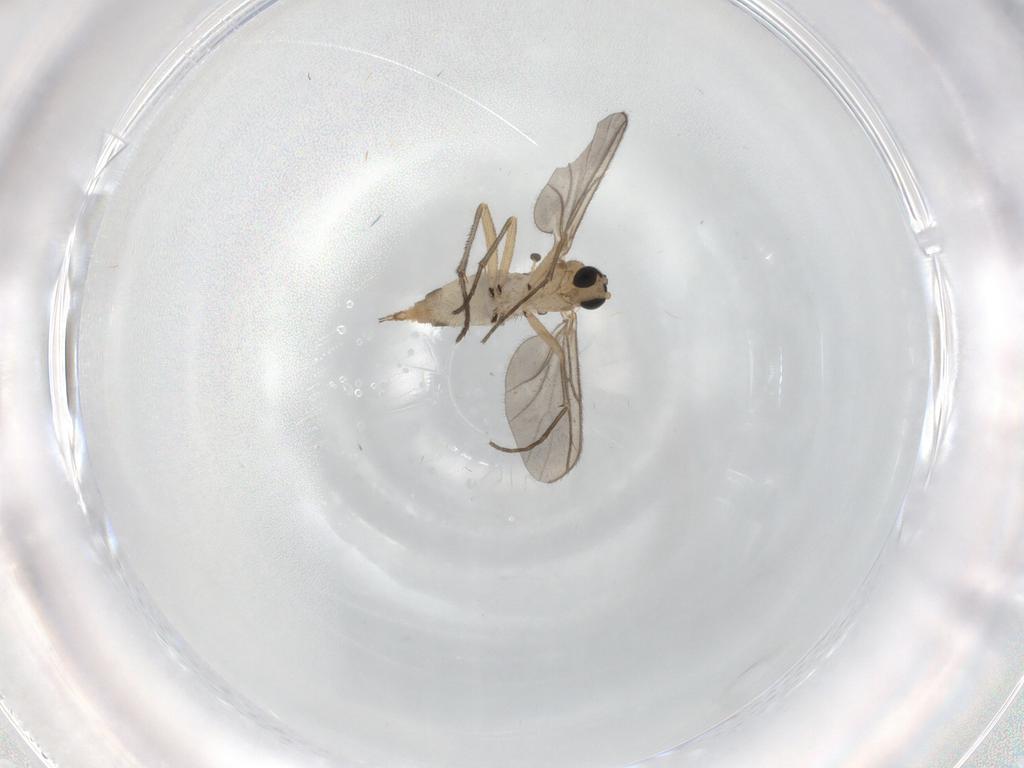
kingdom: Animalia
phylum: Arthropoda
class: Insecta
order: Diptera
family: Sciaridae
